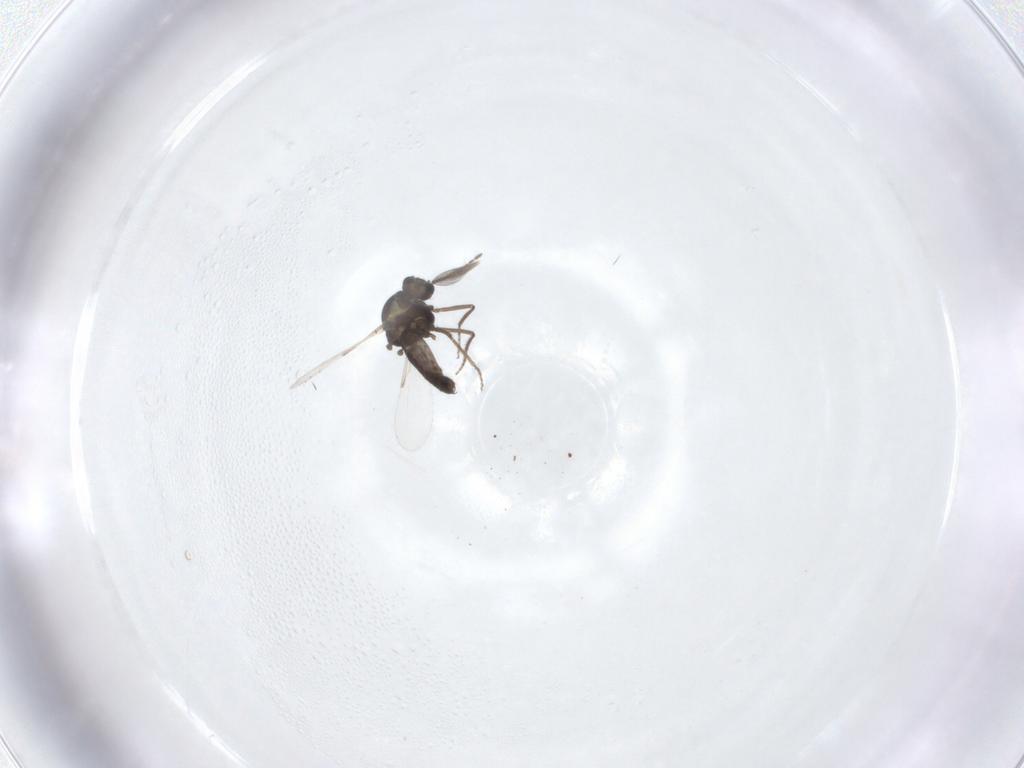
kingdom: Animalia
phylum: Arthropoda
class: Insecta
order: Diptera
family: Ceratopogonidae
